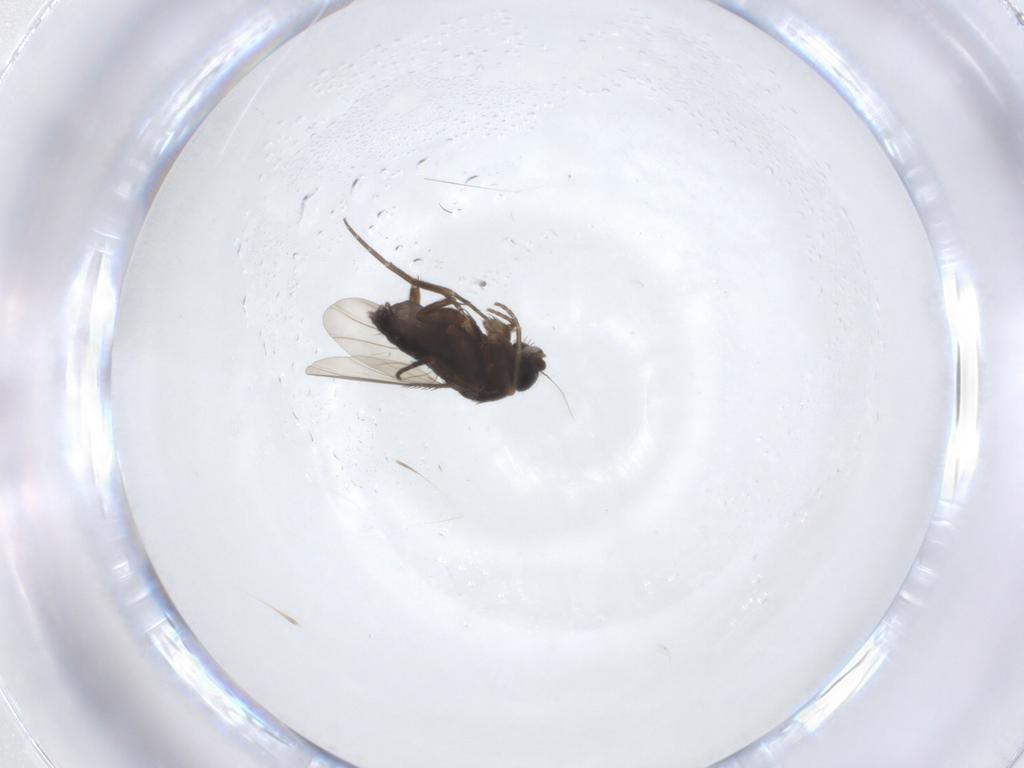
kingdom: Animalia
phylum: Arthropoda
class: Insecta
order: Diptera
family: Phoridae
